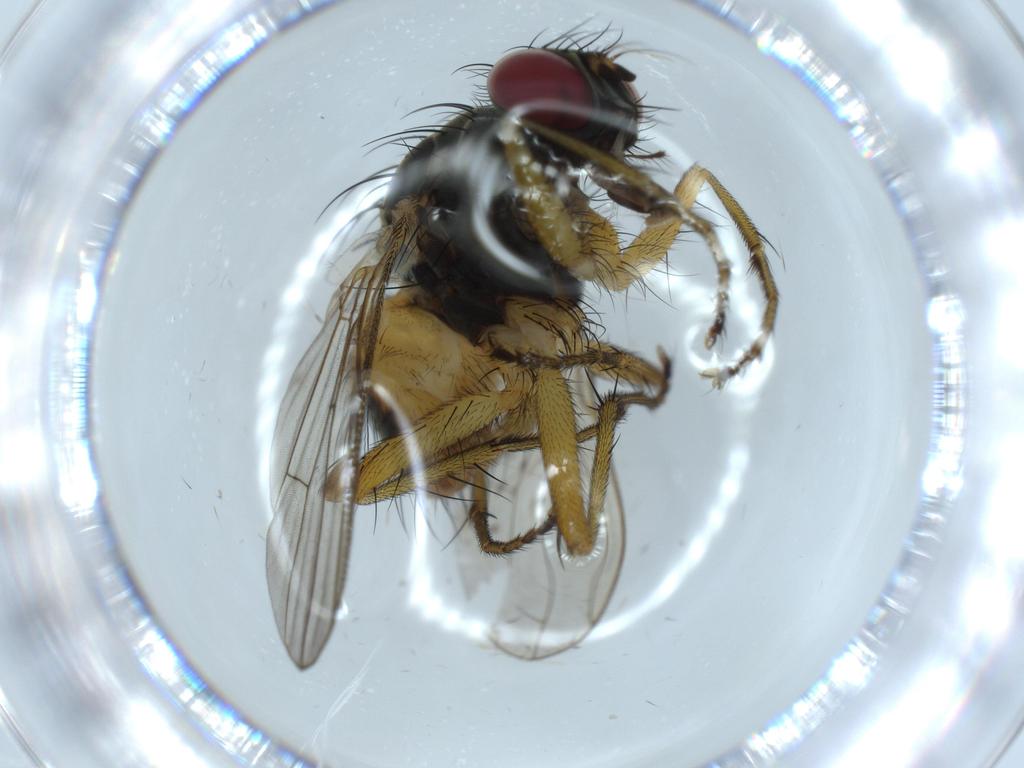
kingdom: Animalia
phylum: Arthropoda
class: Insecta
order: Diptera
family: Muscidae
